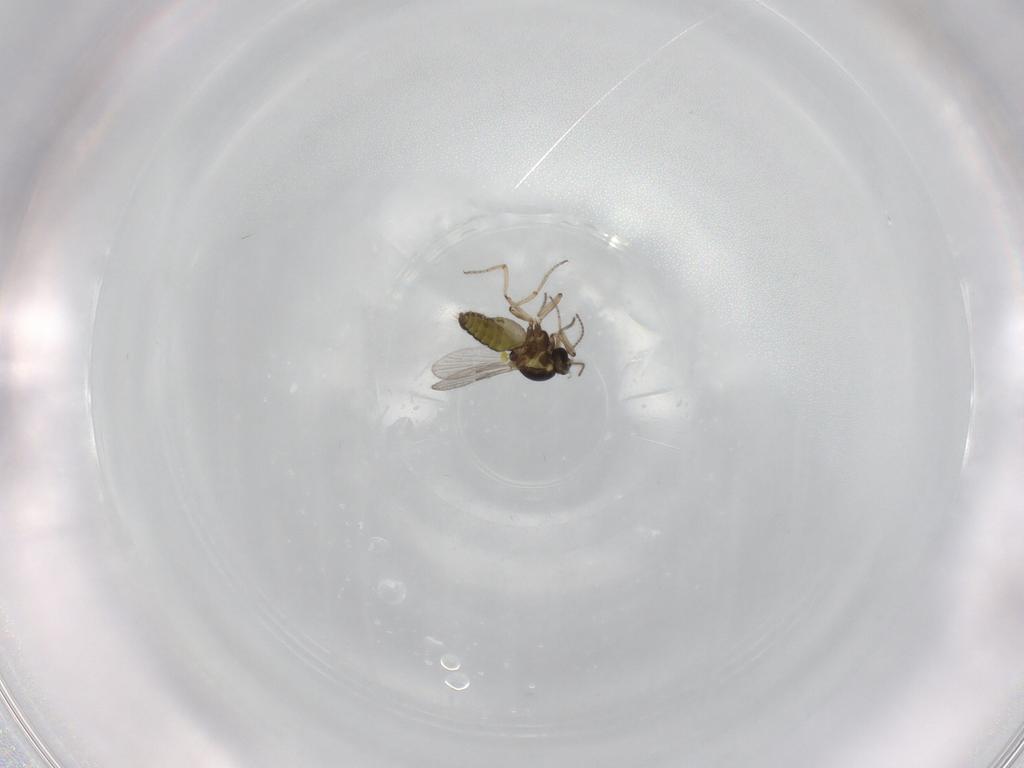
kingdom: Animalia
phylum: Arthropoda
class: Insecta
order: Diptera
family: Ceratopogonidae
